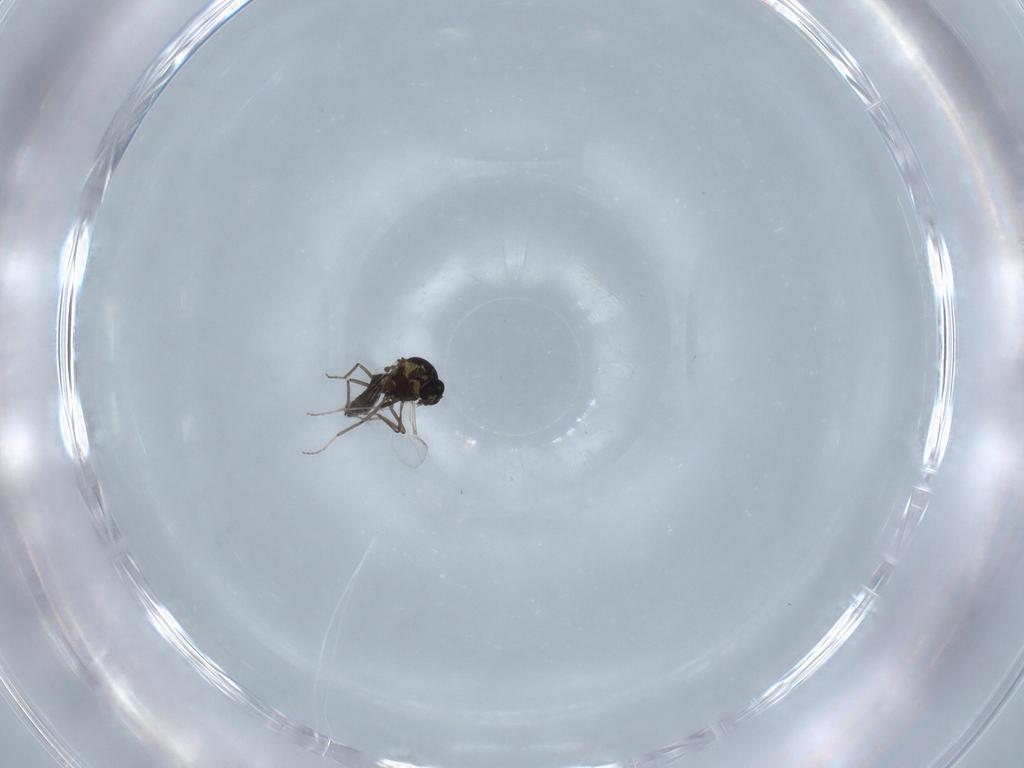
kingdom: Animalia
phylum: Arthropoda
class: Insecta
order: Diptera
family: Ceratopogonidae
